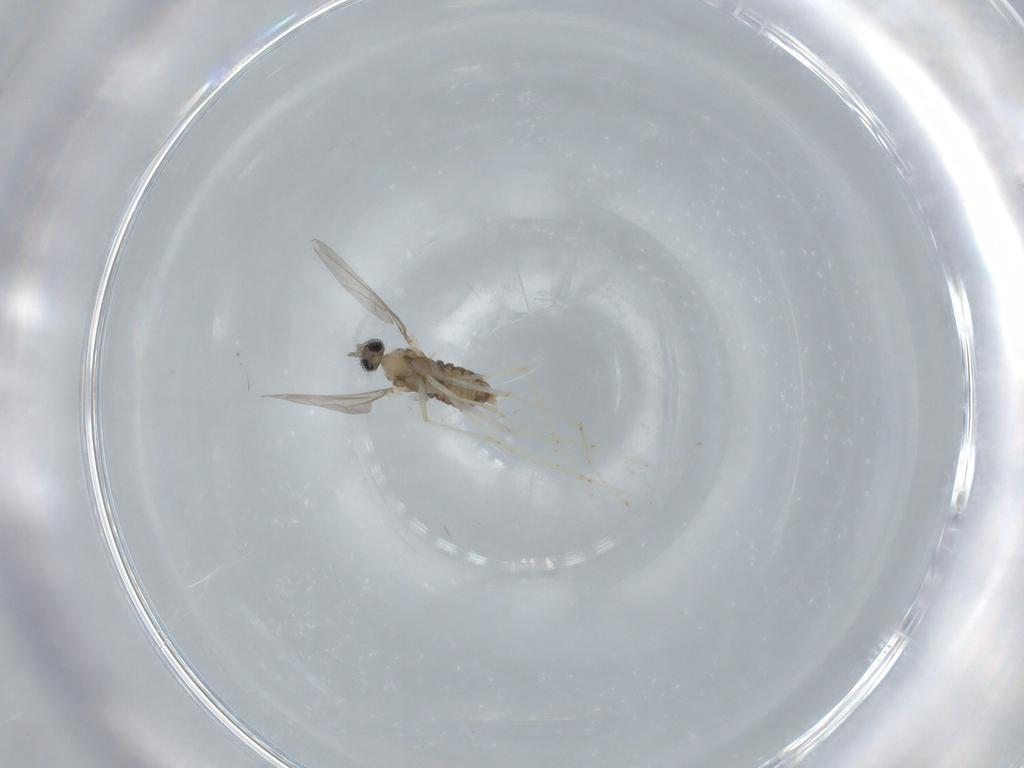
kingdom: Animalia
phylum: Arthropoda
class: Insecta
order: Diptera
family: Cecidomyiidae
